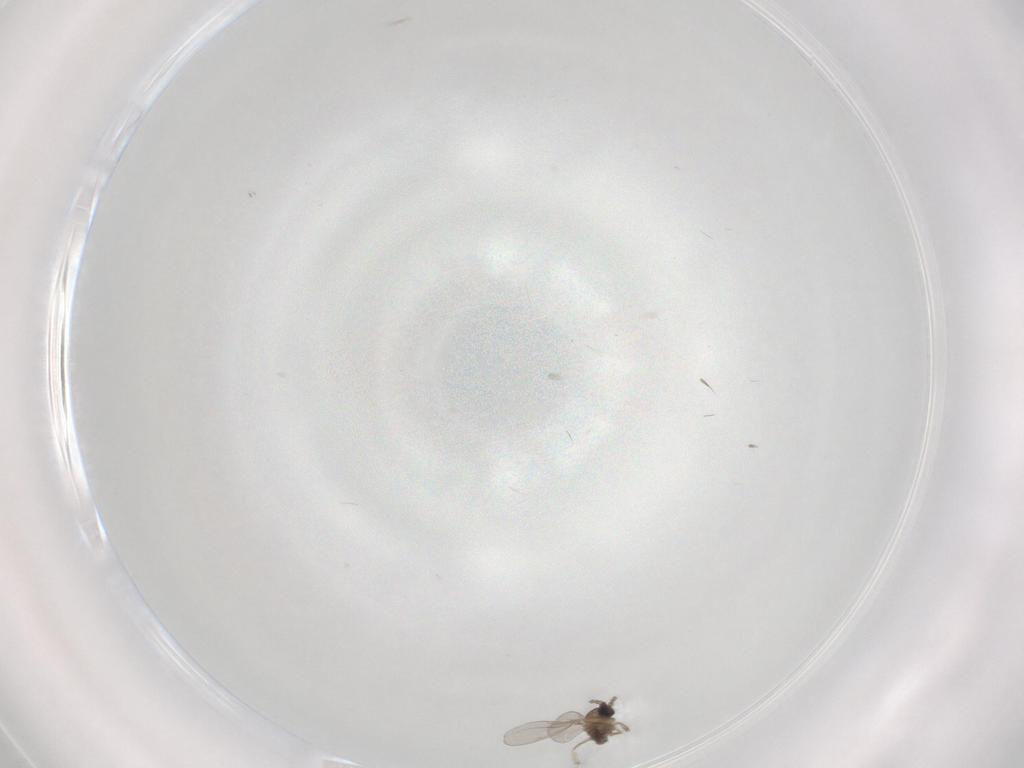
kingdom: Animalia
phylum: Arthropoda
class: Insecta
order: Diptera
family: Cecidomyiidae
